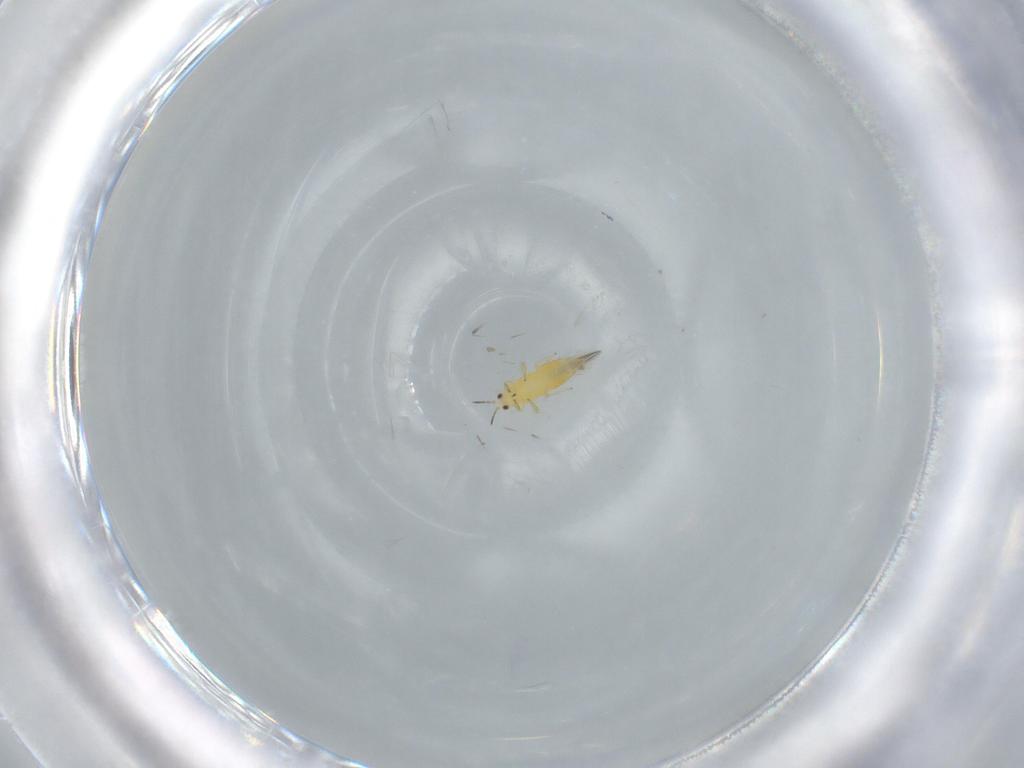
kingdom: Animalia
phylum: Arthropoda
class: Insecta
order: Thysanoptera
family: Thripidae
